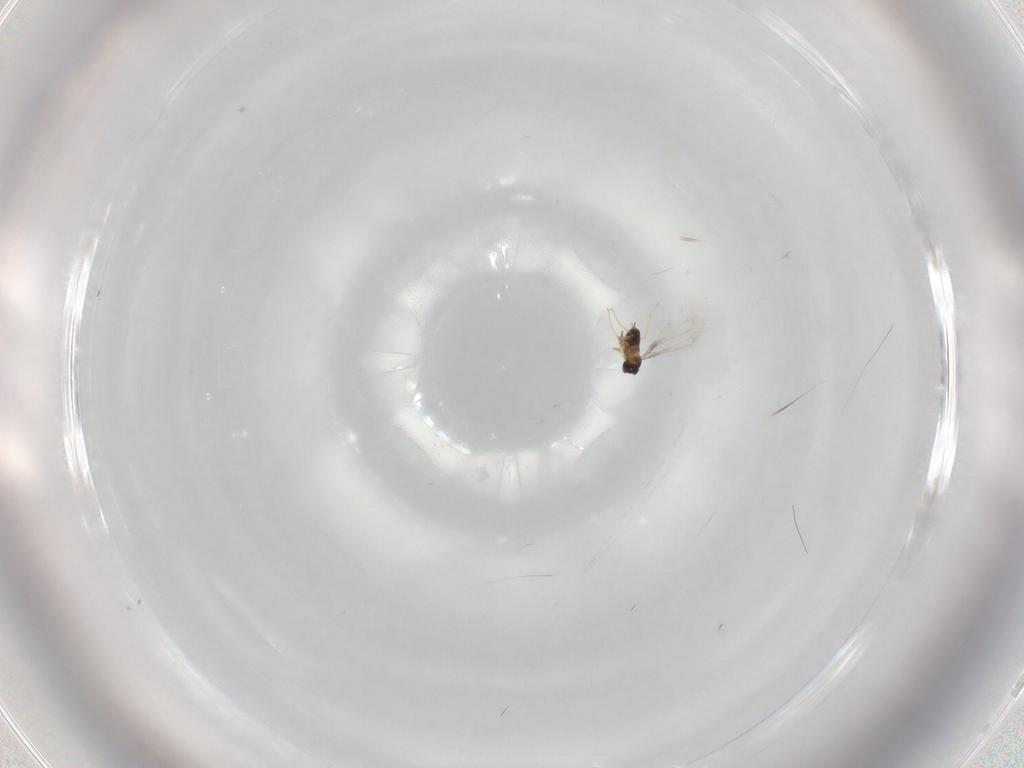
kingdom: Animalia
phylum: Arthropoda
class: Insecta
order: Hymenoptera
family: Mymaridae
